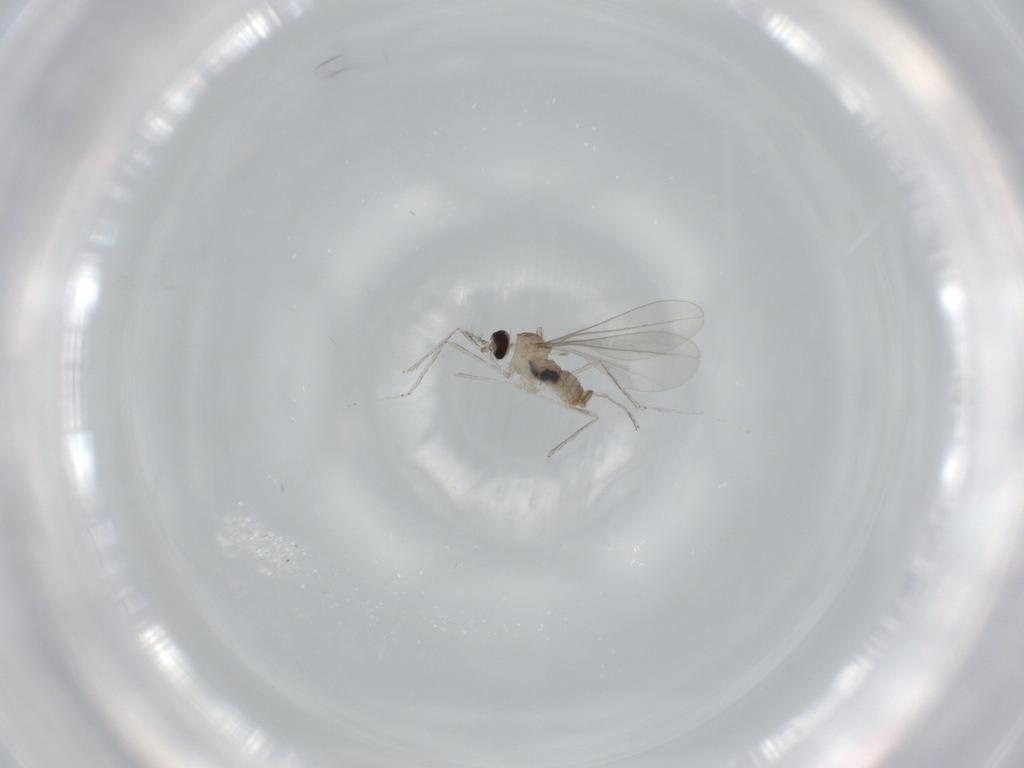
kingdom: Animalia
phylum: Arthropoda
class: Insecta
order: Diptera
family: Cecidomyiidae
